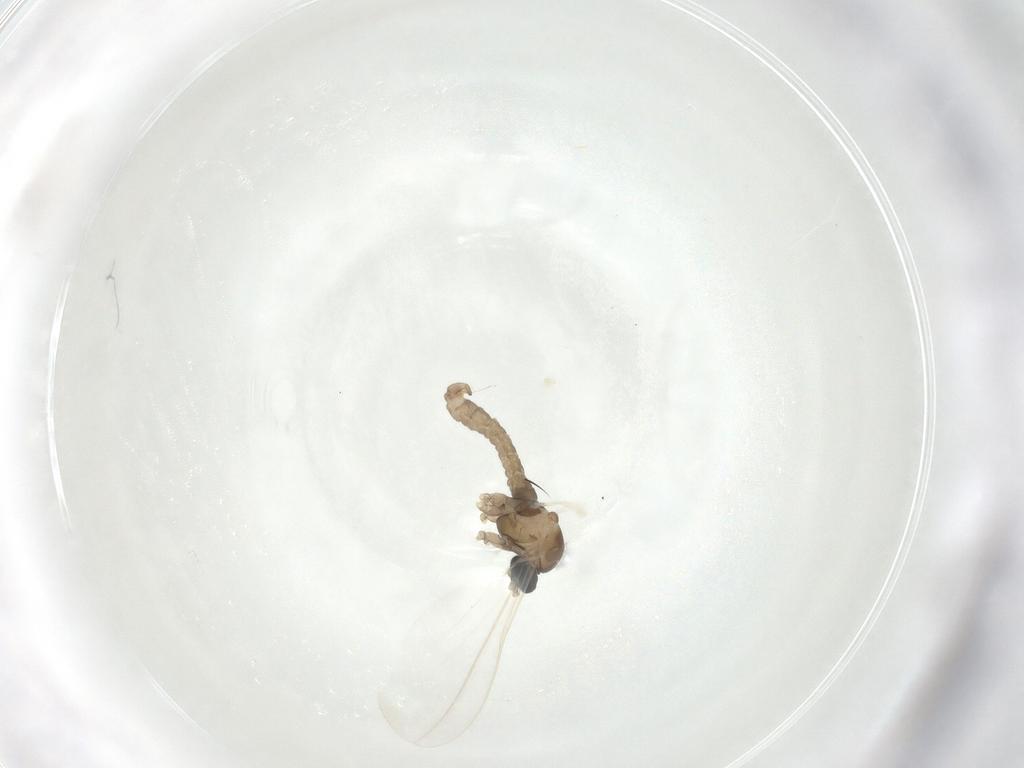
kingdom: Animalia
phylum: Arthropoda
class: Insecta
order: Diptera
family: Cecidomyiidae
